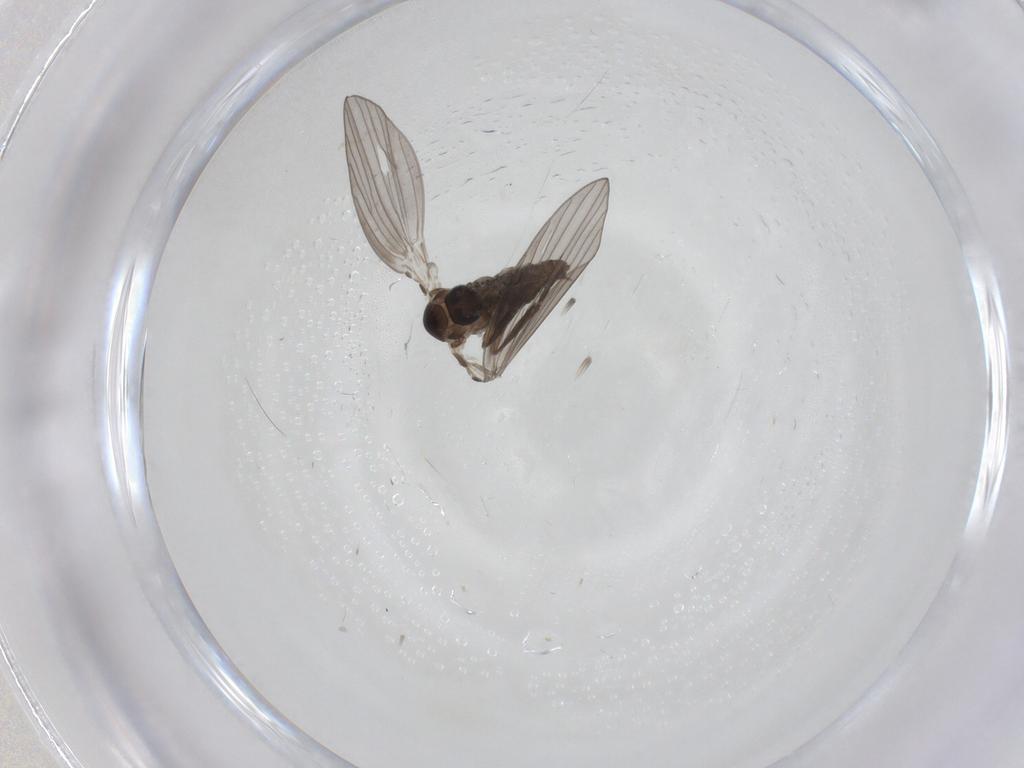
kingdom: Animalia
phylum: Arthropoda
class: Insecta
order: Diptera
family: Psychodidae
